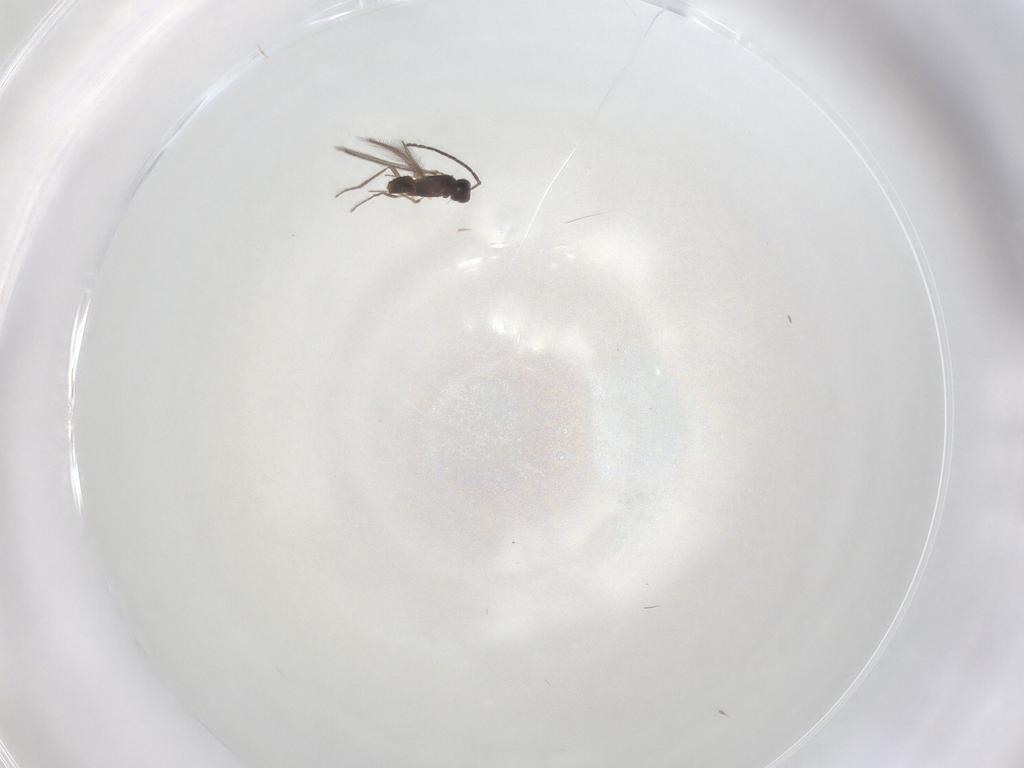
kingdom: Animalia
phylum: Arthropoda
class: Insecta
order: Hymenoptera
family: Mymaridae
